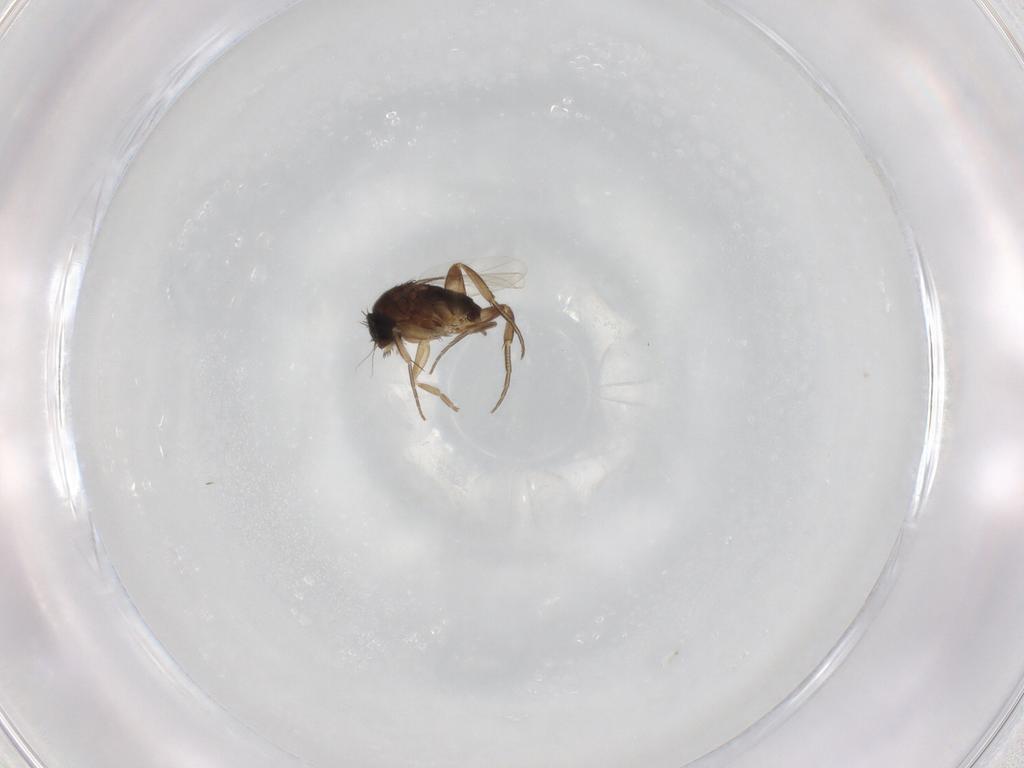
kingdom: Animalia
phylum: Arthropoda
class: Insecta
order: Diptera
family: Phoridae
